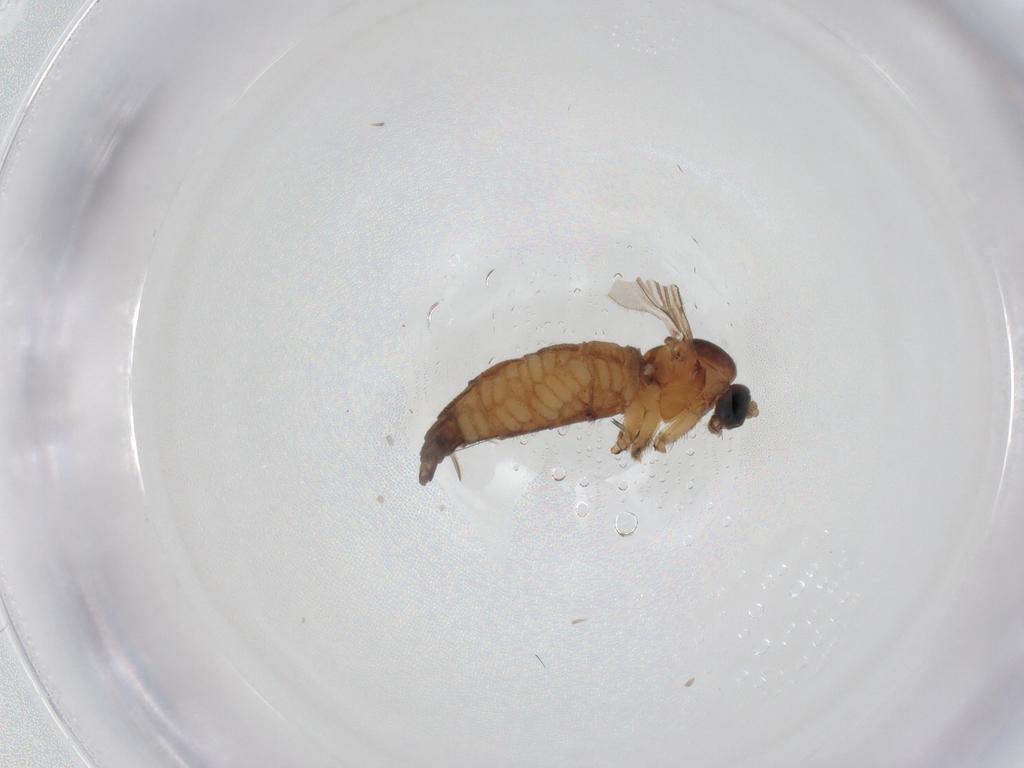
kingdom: Animalia
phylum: Arthropoda
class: Insecta
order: Diptera
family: Sciaridae
